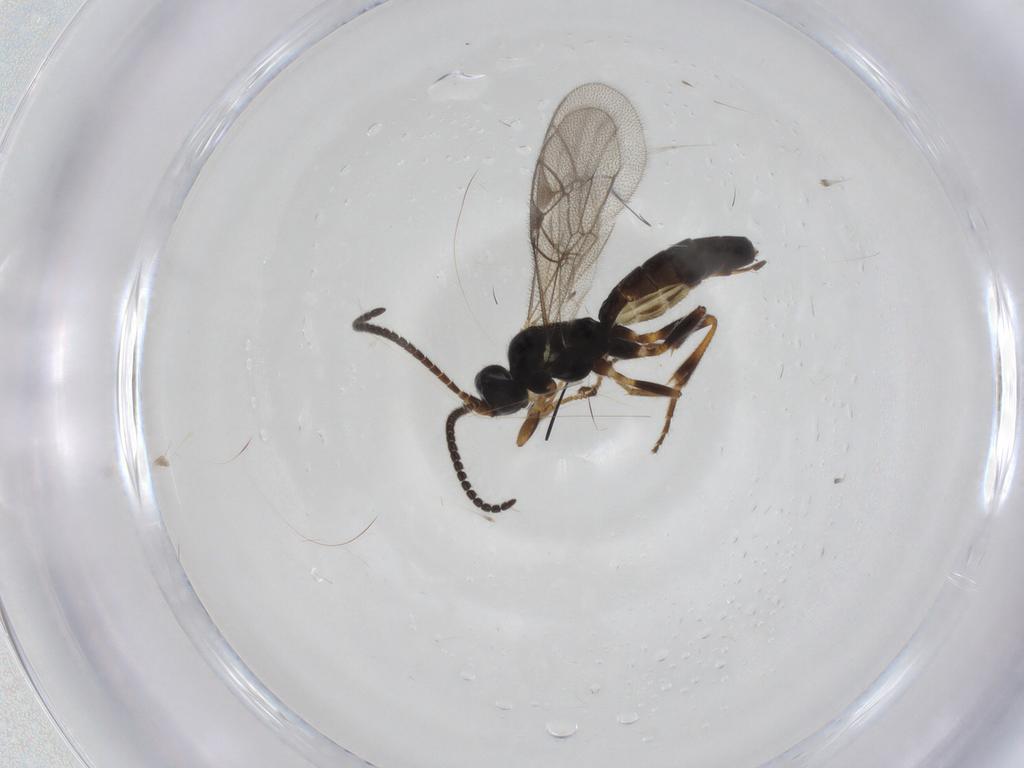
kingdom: Animalia
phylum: Arthropoda
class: Insecta
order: Hymenoptera
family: Ichneumonidae
